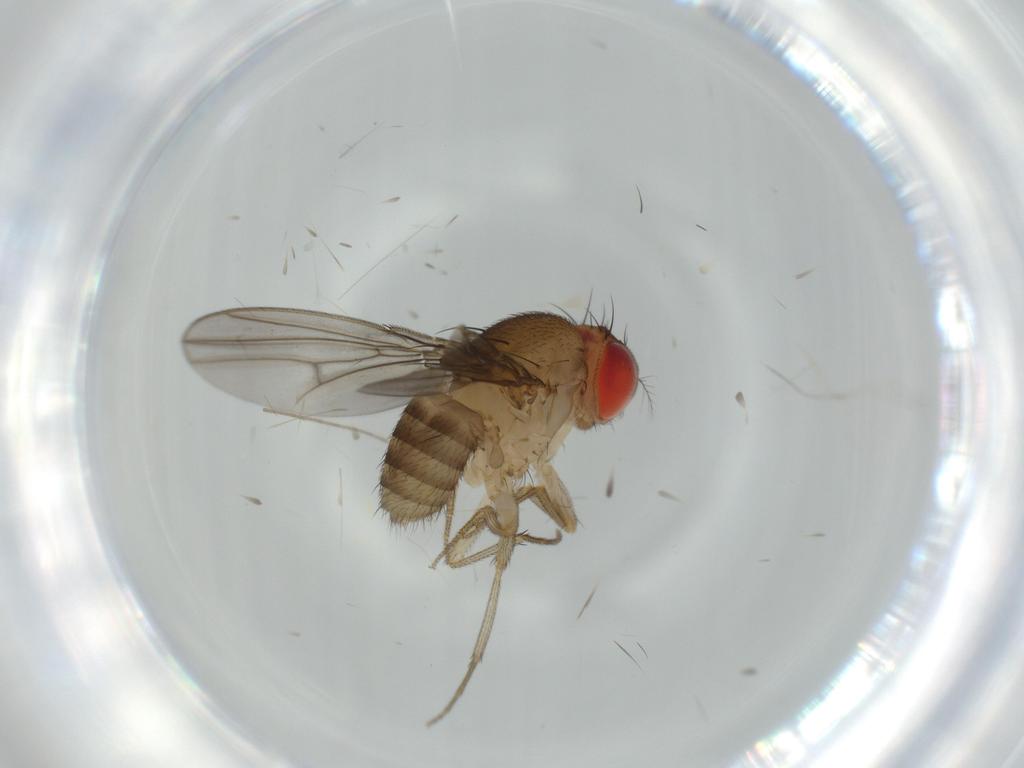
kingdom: Animalia
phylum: Arthropoda
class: Insecta
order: Diptera
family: Drosophilidae
